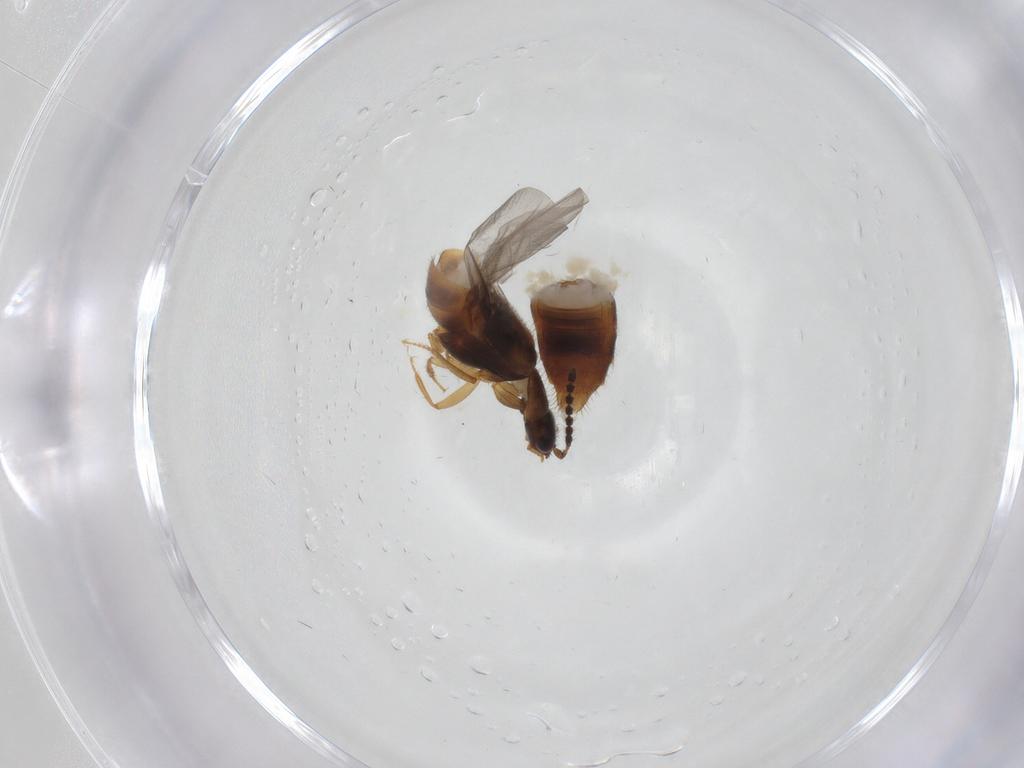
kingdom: Animalia
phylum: Arthropoda
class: Insecta
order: Coleoptera
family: Staphylinidae
